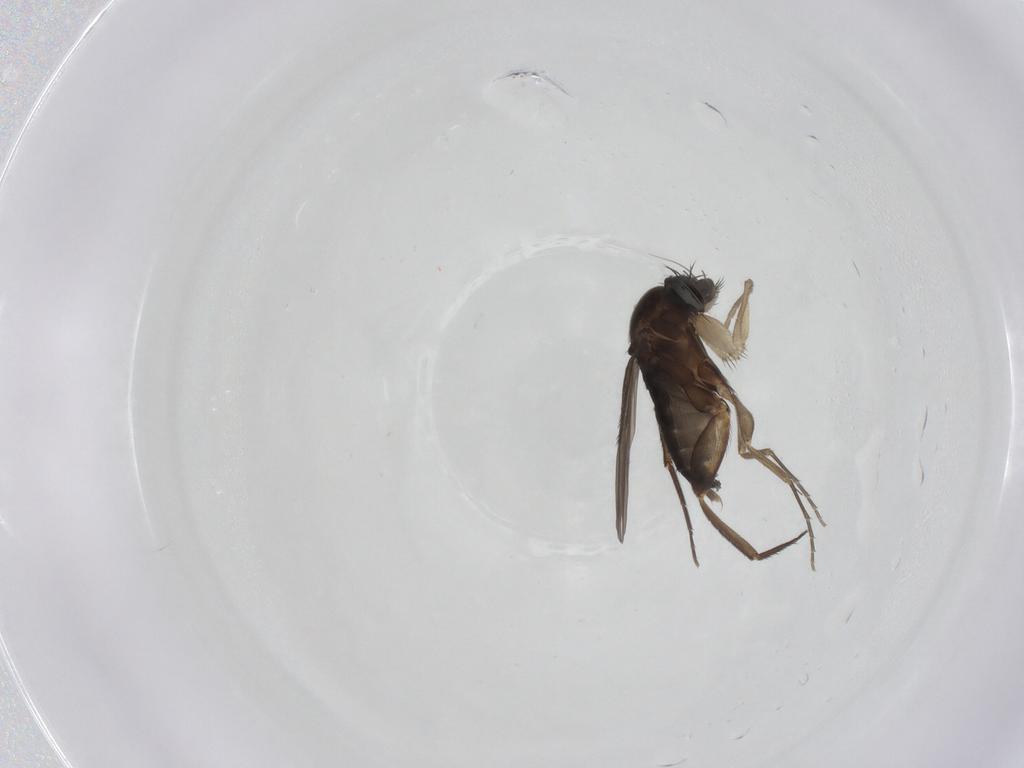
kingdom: Animalia
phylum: Arthropoda
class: Insecta
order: Diptera
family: Phoridae
